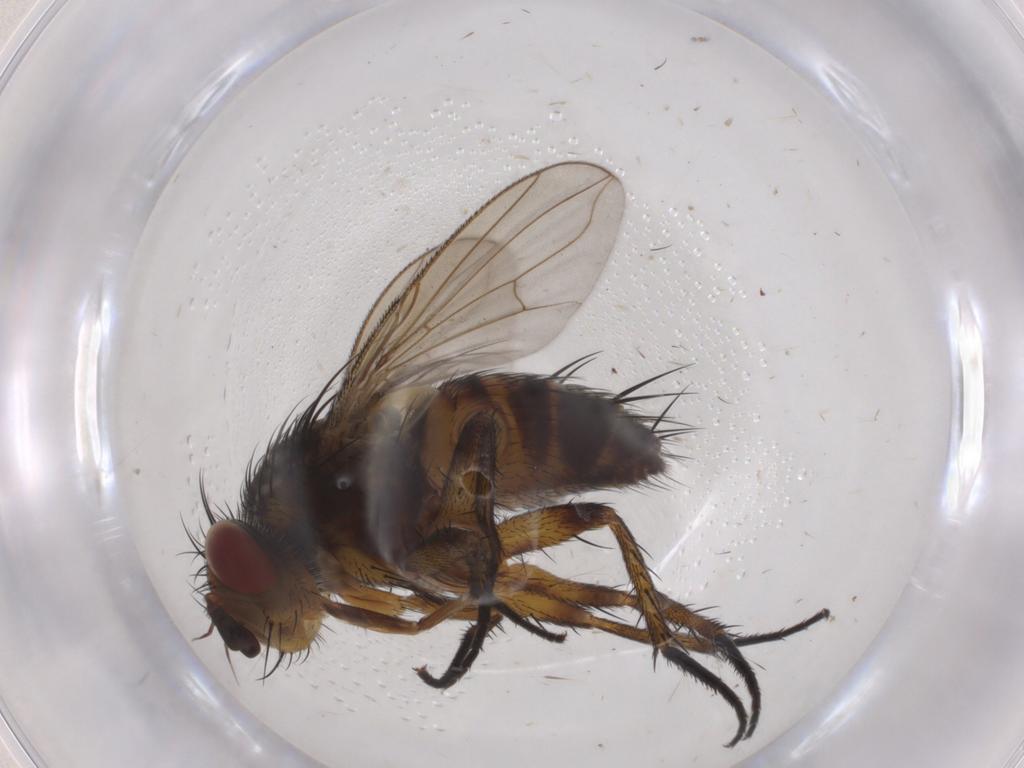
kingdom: Animalia
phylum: Arthropoda
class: Insecta
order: Diptera
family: Tachinidae
